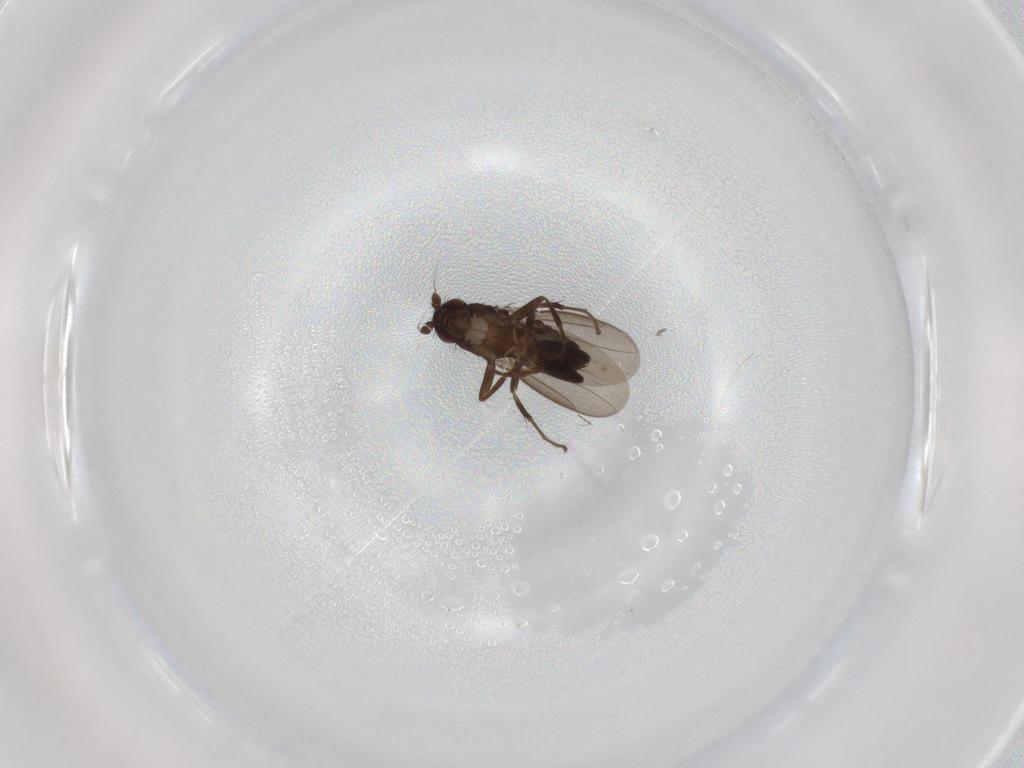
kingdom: Animalia
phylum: Arthropoda
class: Insecta
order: Diptera
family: Sphaeroceridae
